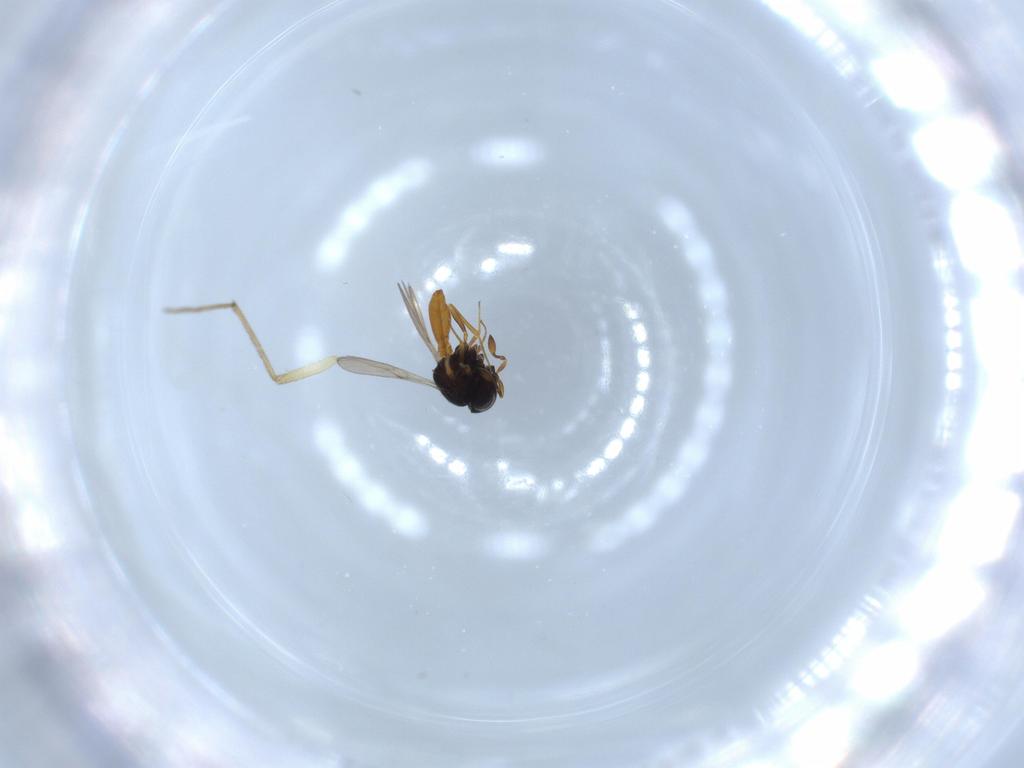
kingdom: Animalia
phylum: Arthropoda
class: Insecta
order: Hymenoptera
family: Scelionidae
